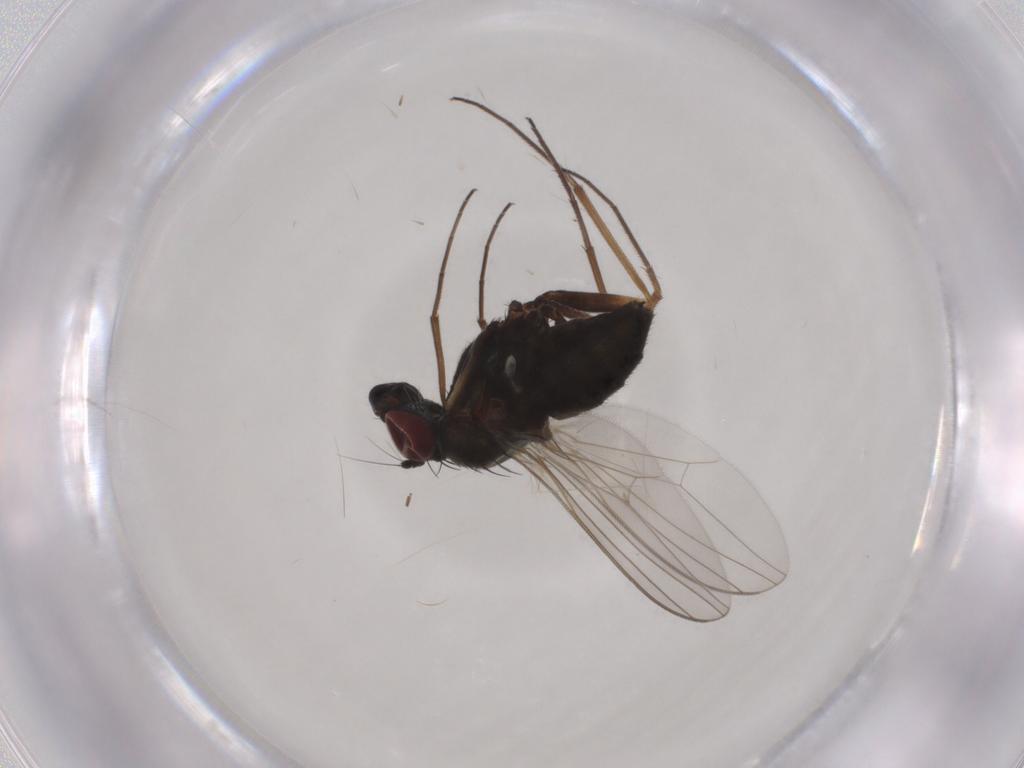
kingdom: Animalia
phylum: Arthropoda
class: Insecta
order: Diptera
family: Dolichopodidae
